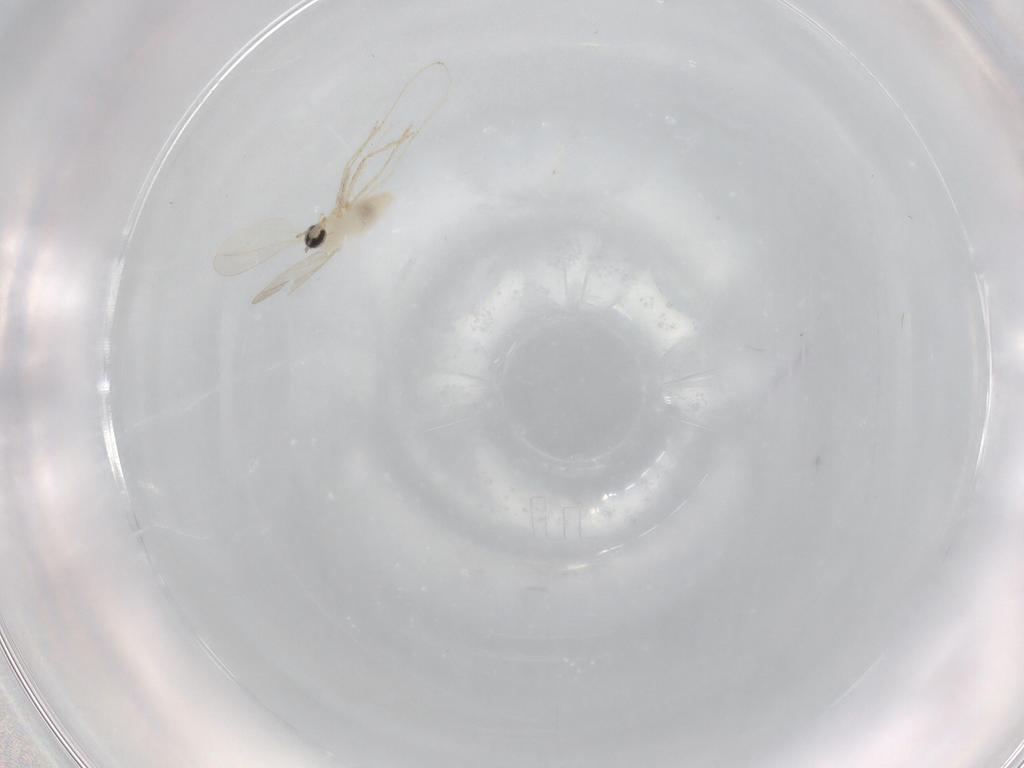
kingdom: Animalia
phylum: Arthropoda
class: Insecta
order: Diptera
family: Cecidomyiidae
